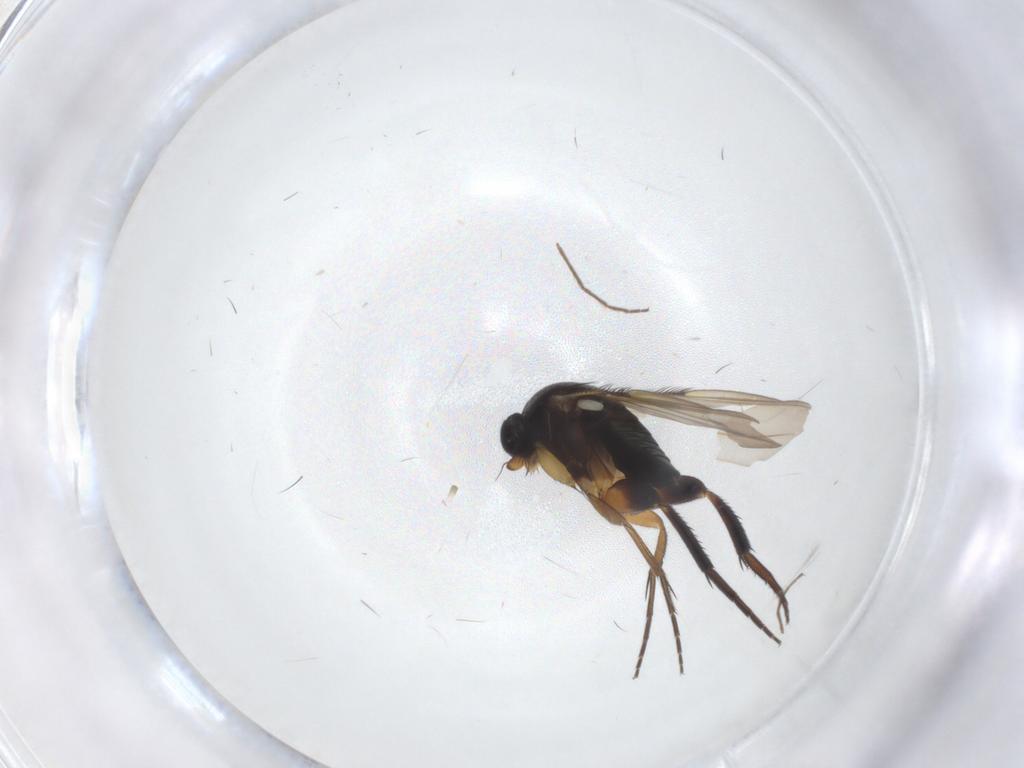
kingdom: Animalia
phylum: Arthropoda
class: Insecta
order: Diptera
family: Phoridae
